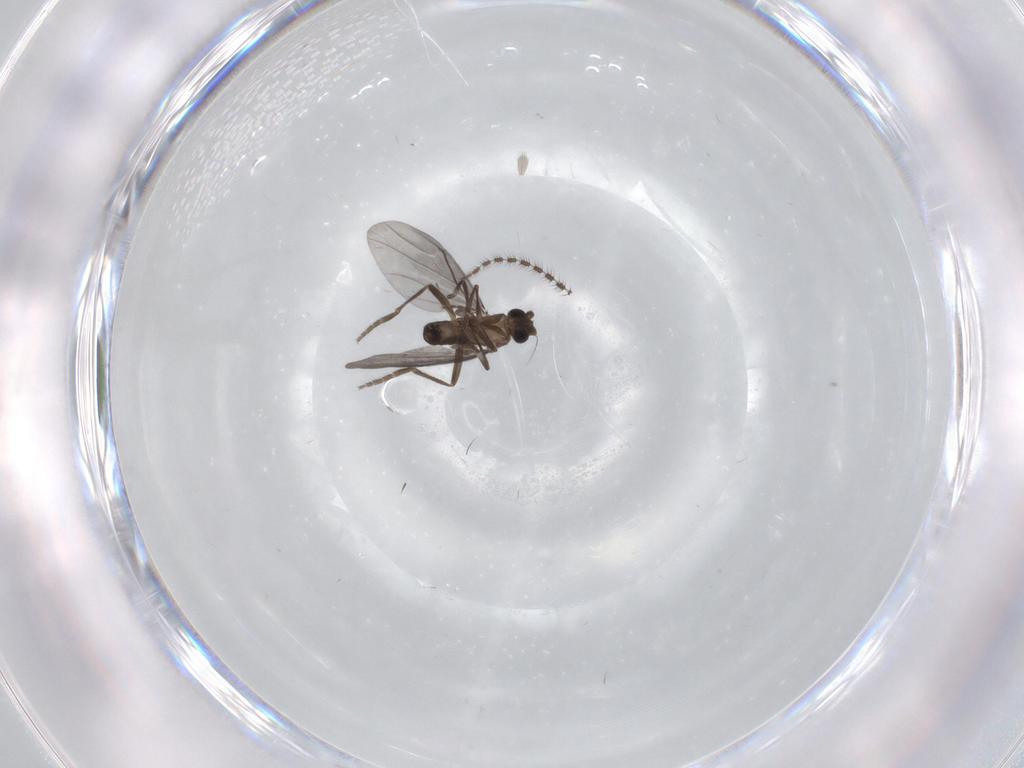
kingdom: Animalia
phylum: Arthropoda
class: Insecta
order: Diptera
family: Phoridae
